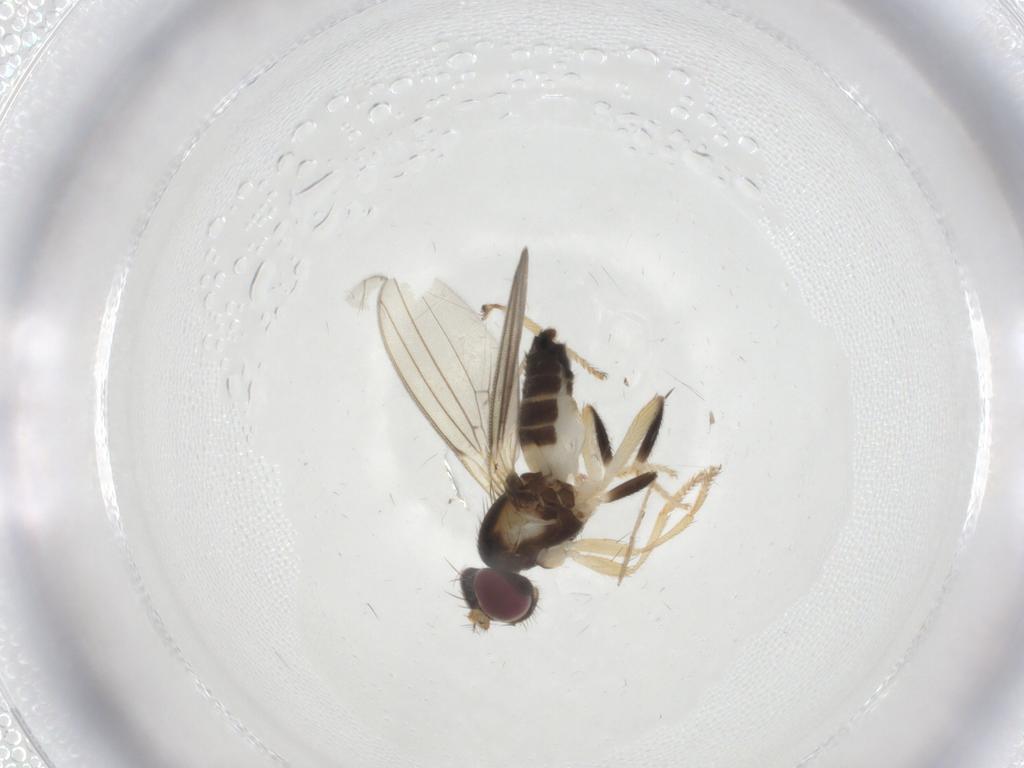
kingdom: Animalia
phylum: Arthropoda
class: Insecta
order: Diptera
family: Periscelididae
